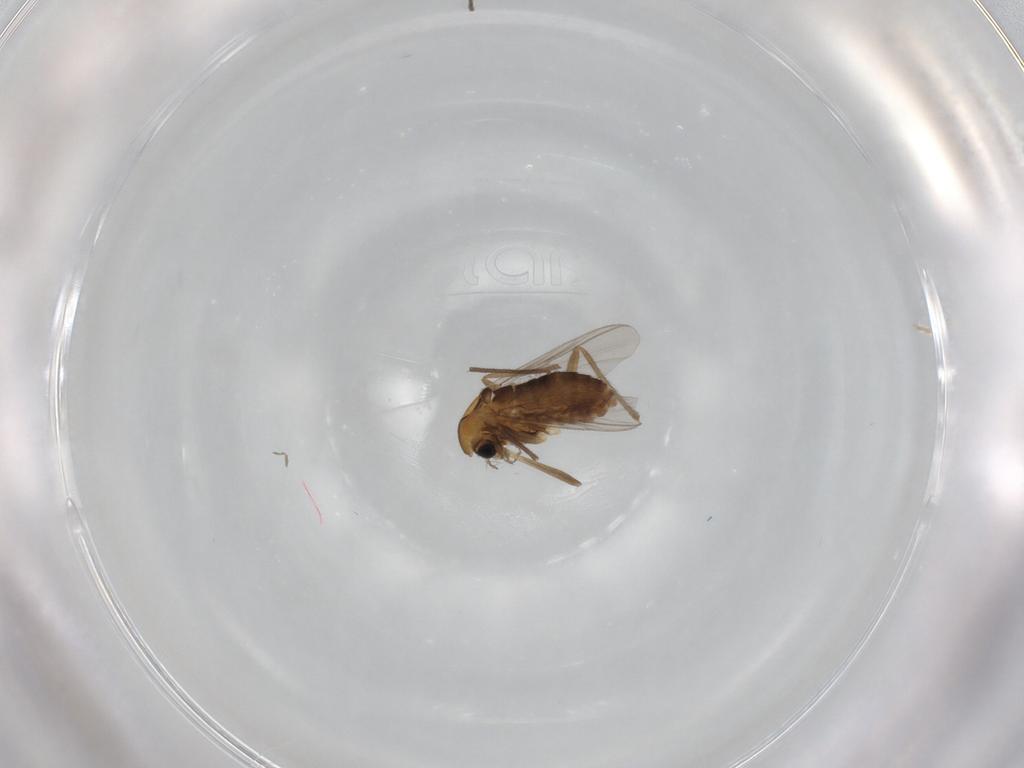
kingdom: Animalia
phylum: Arthropoda
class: Insecta
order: Diptera
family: Chironomidae
